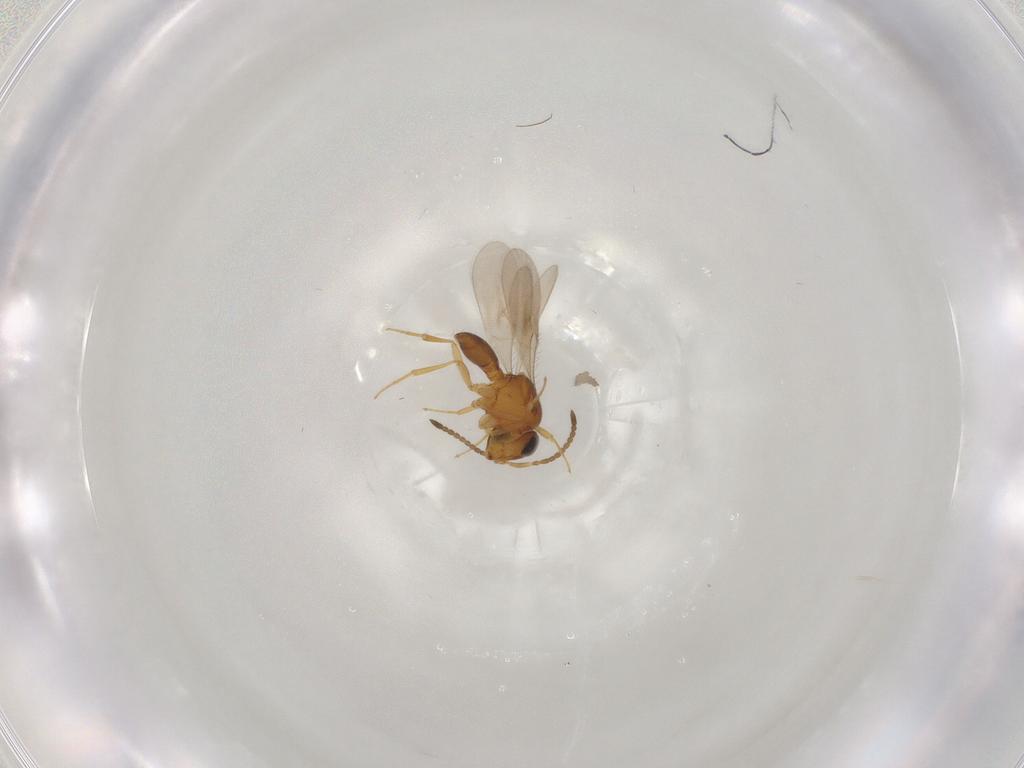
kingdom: Animalia
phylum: Arthropoda
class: Insecta
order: Hymenoptera
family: Scelionidae
